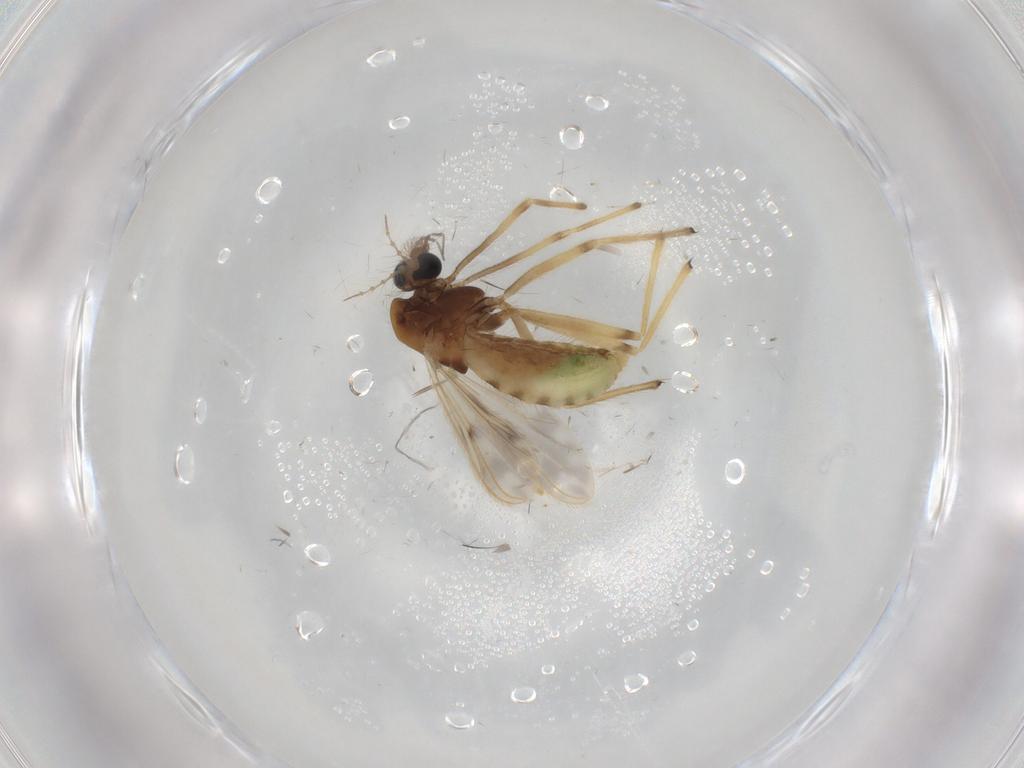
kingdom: Animalia
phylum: Arthropoda
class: Insecta
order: Diptera
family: Chironomidae
